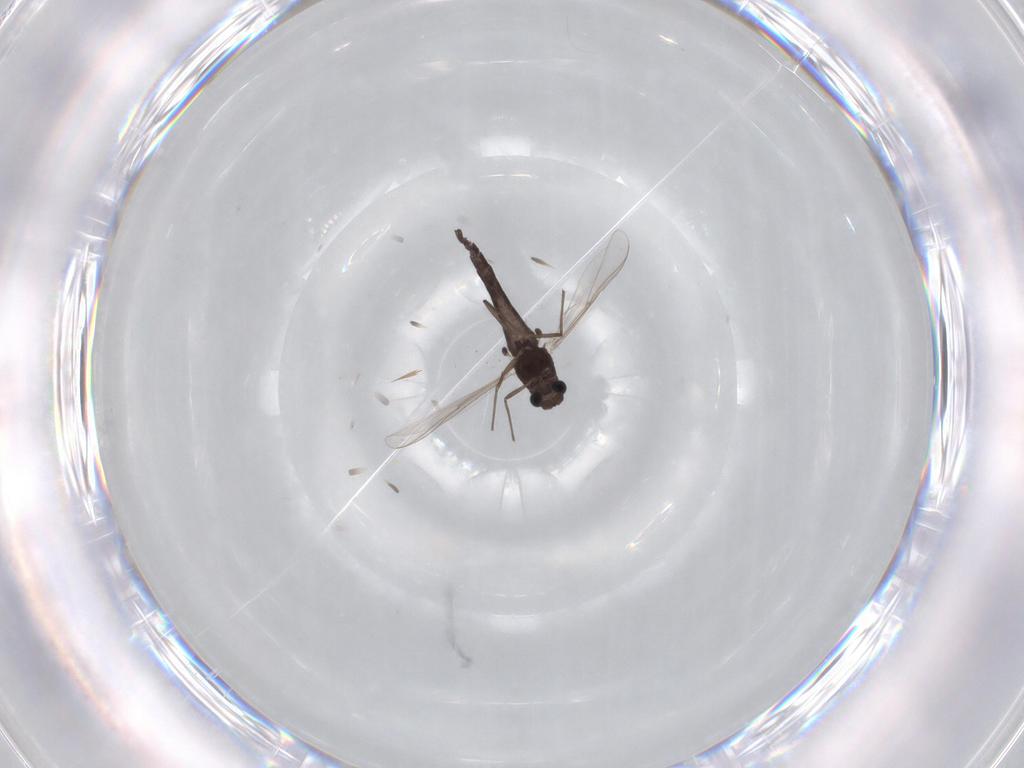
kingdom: Animalia
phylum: Arthropoda
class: Insecta
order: Diptera
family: Chironomidae
